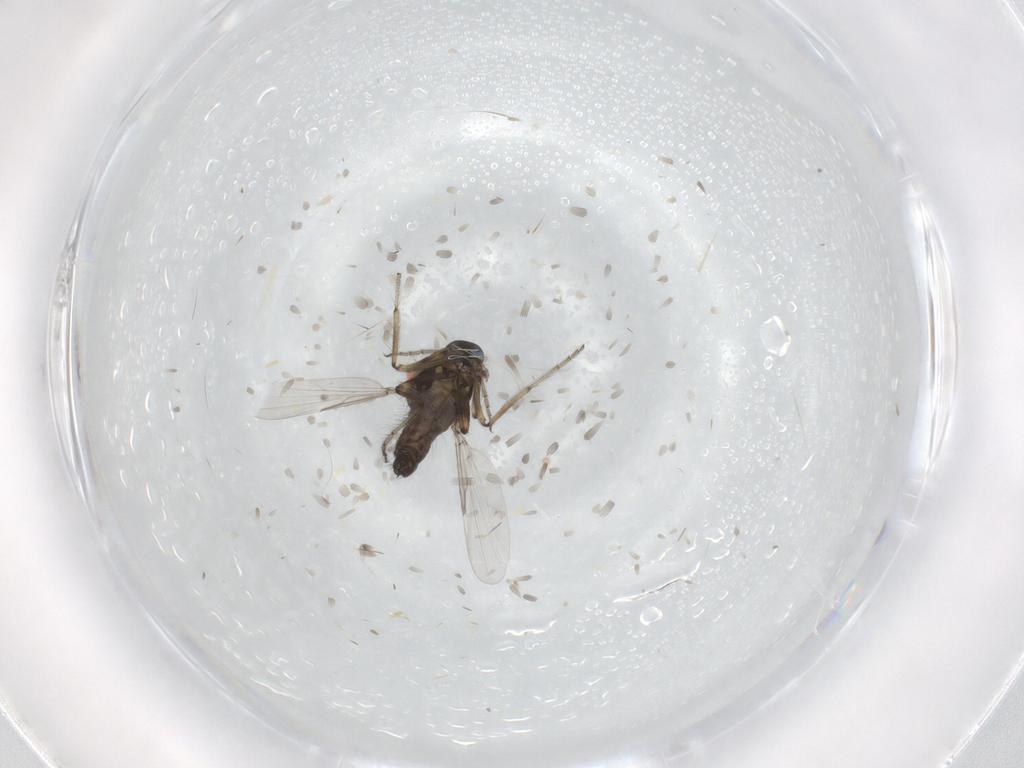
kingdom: Animalia
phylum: Arthropoda
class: Insecta
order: Diptera
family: Ceratopogonidae
